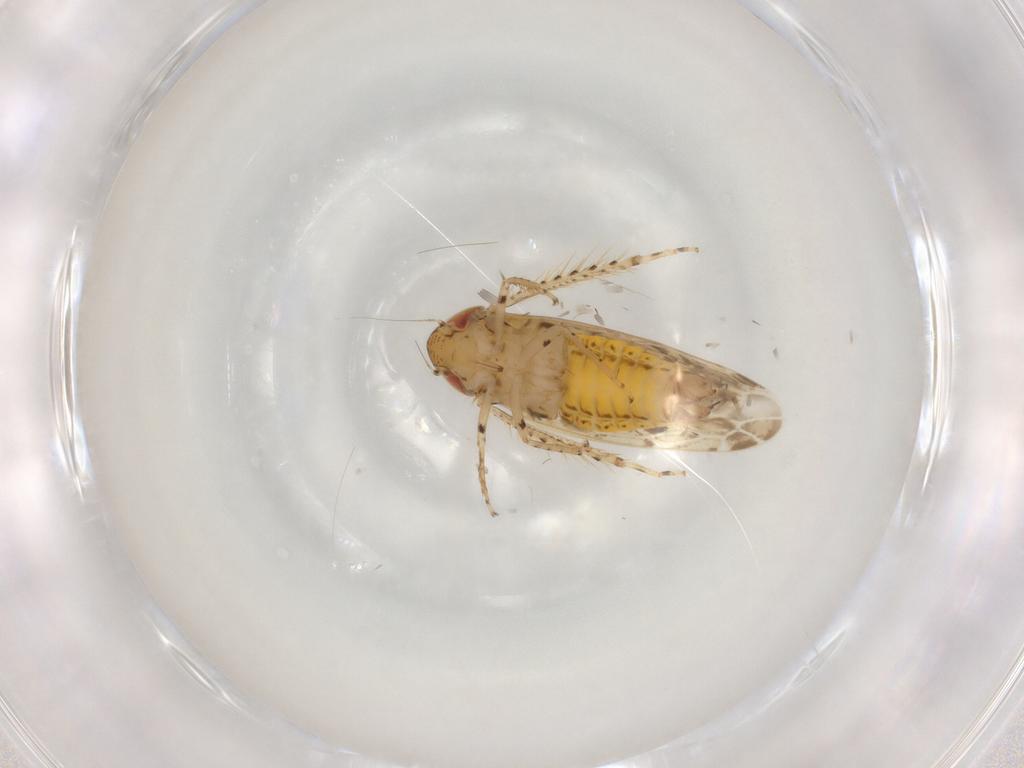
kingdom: Animalia
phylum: Arthropoda
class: Insecta
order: Hemiptera
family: Cicadellidae
